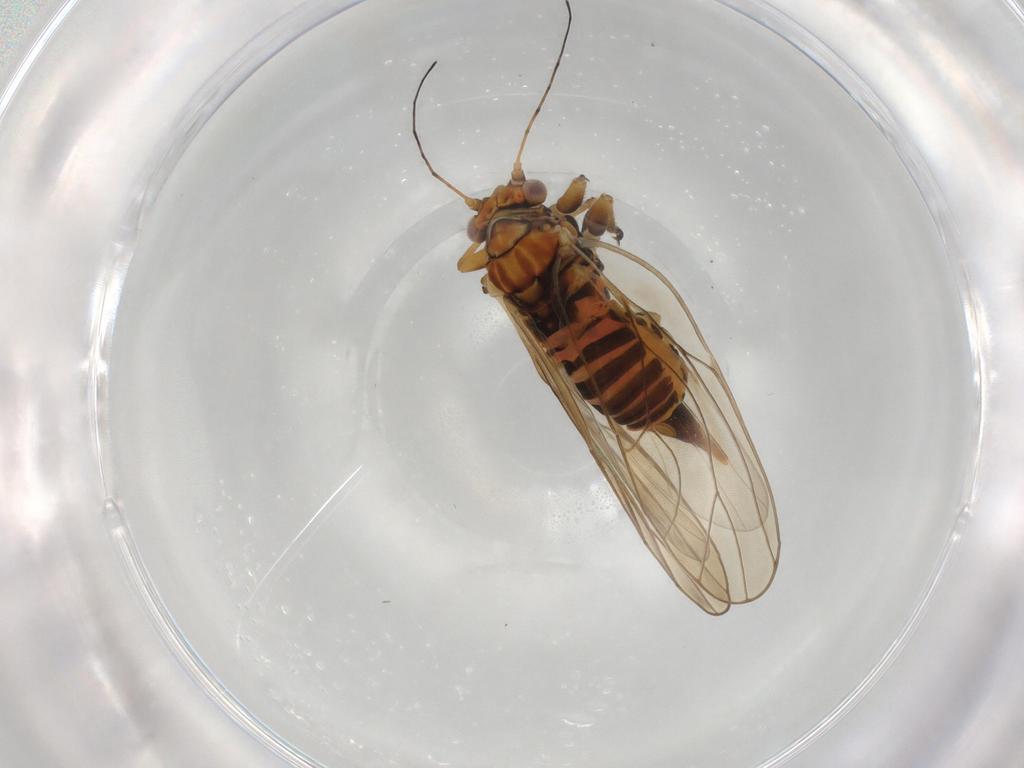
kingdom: Animalia
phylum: Arthropoda
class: Insecta
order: Hemiptera
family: Psyllidae
